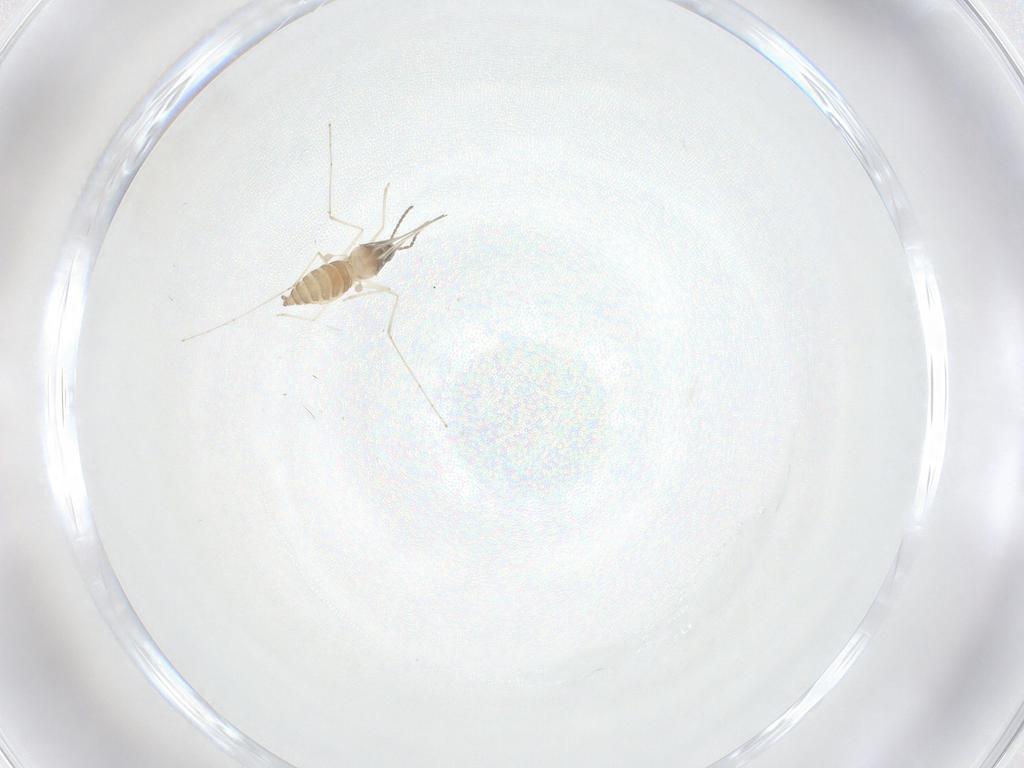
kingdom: Animalia
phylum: Arthropoda
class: Insecta
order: Diptera
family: Cecidomyiidae
